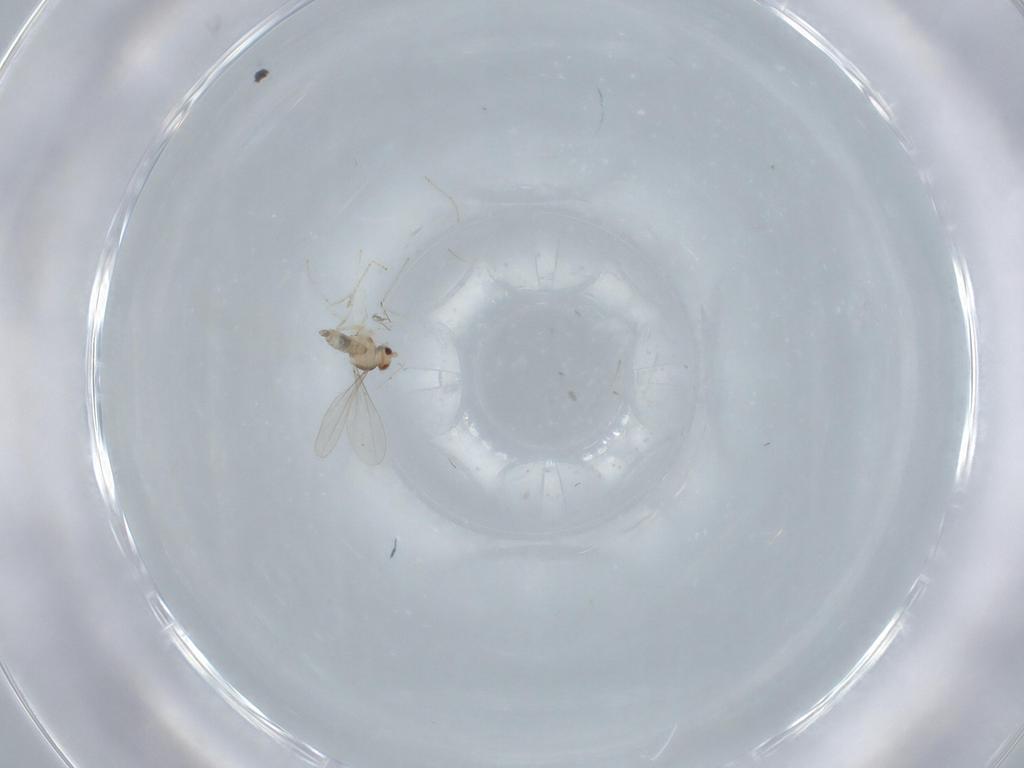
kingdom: Animalia
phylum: Arthropoda
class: Insecta
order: Diptera
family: Cecidomyiidae
